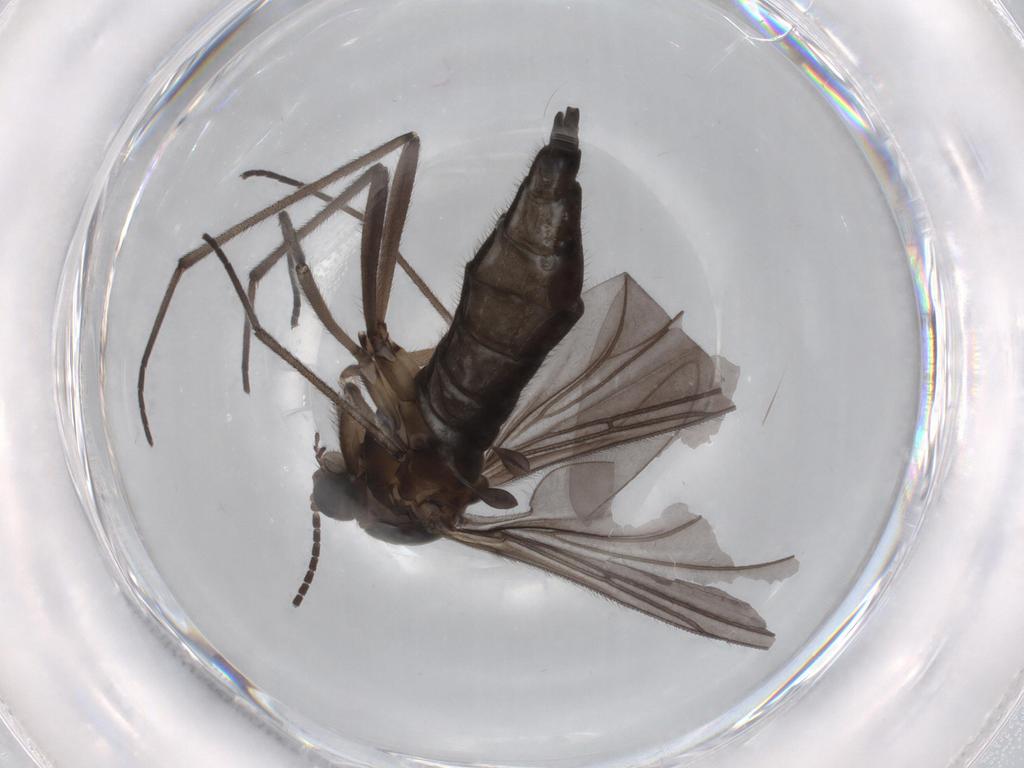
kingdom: Animalia
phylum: Arthropoda
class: Insecta
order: Diptera
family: Sciaridae
